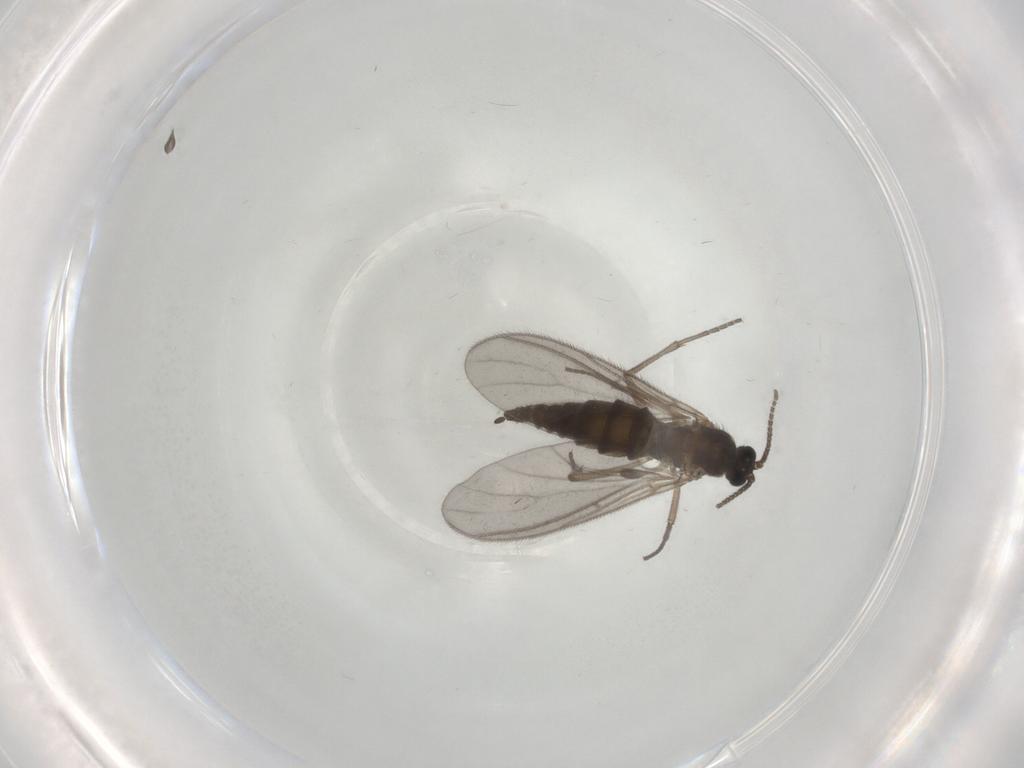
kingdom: Animalia
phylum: Arthropoda
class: Insecta
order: Diptera
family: Sciaridae
